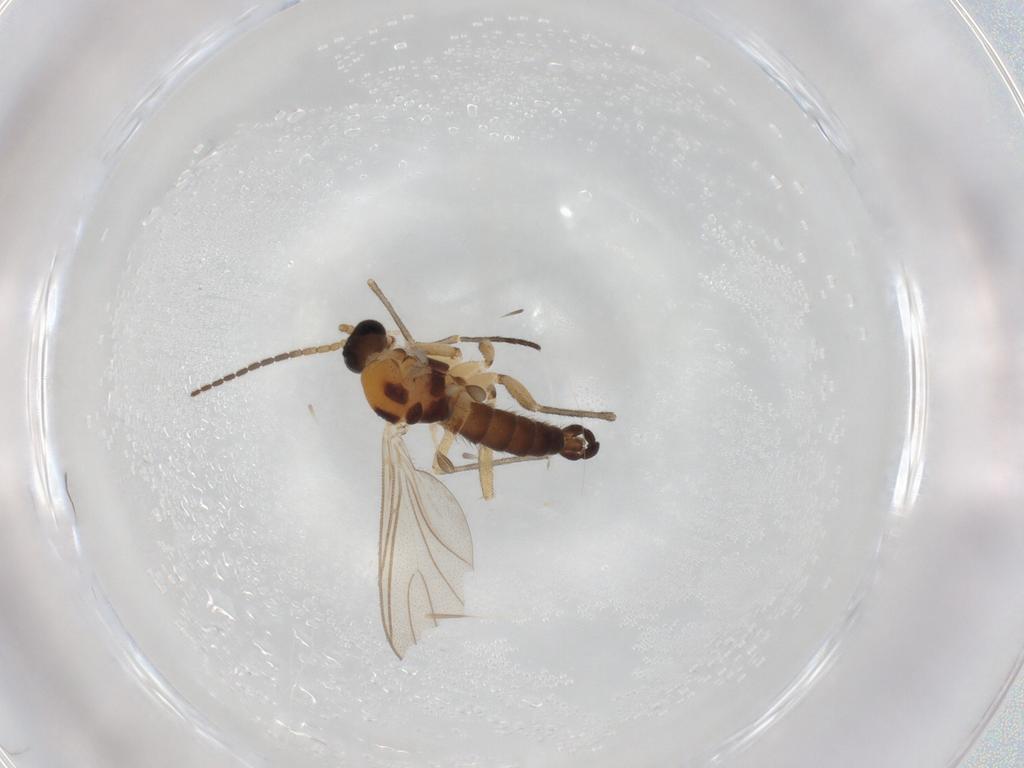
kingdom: Animalia
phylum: Arthropoda
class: Insecta
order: Diptera
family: Sciaridae
